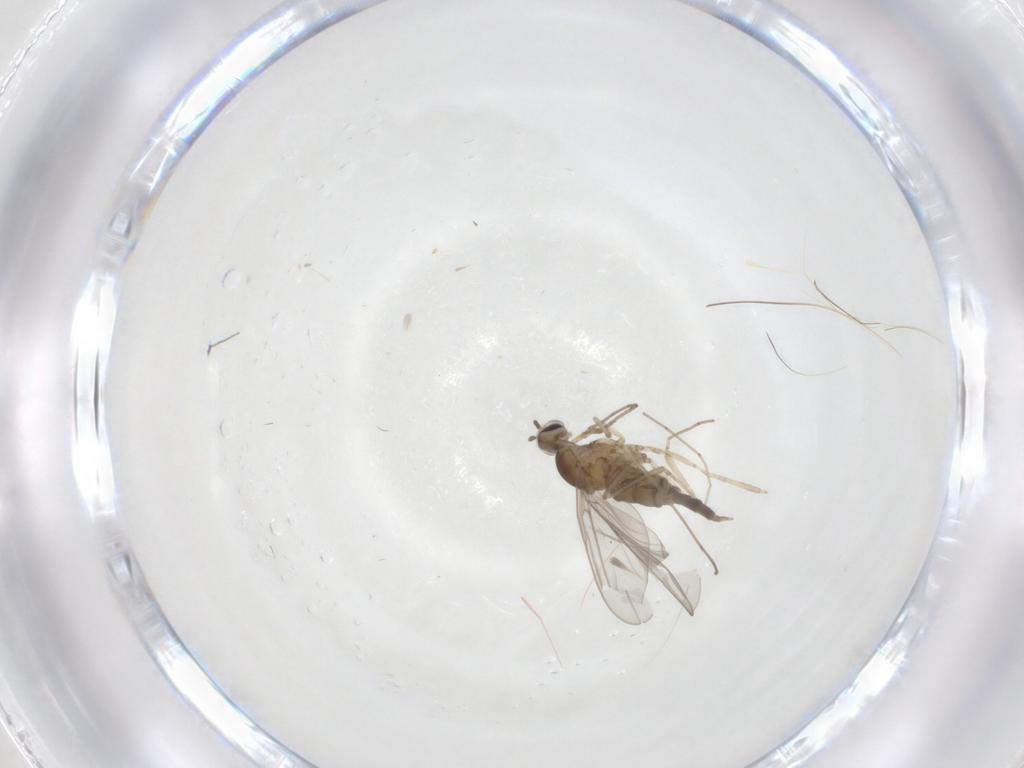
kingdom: Animalia
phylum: Arthropoda
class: Insecta
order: Diptera
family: Cecidomyiidae
